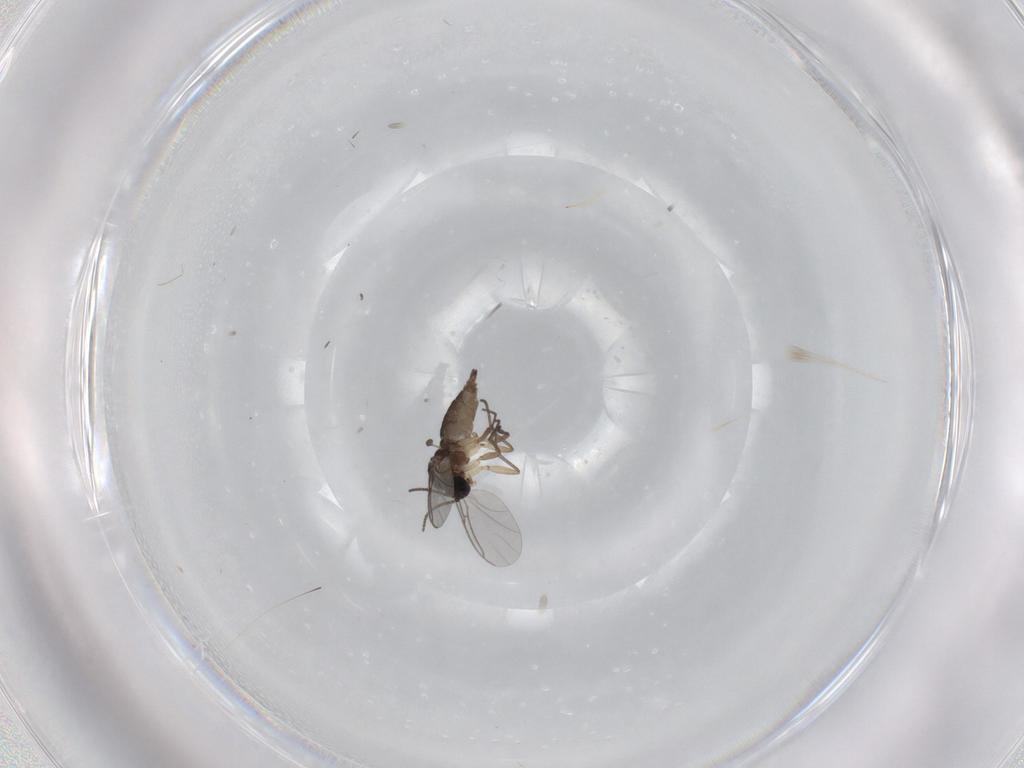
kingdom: Animalia
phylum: Arthropoda
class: Insecta
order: Diptera
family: Sciaridae
